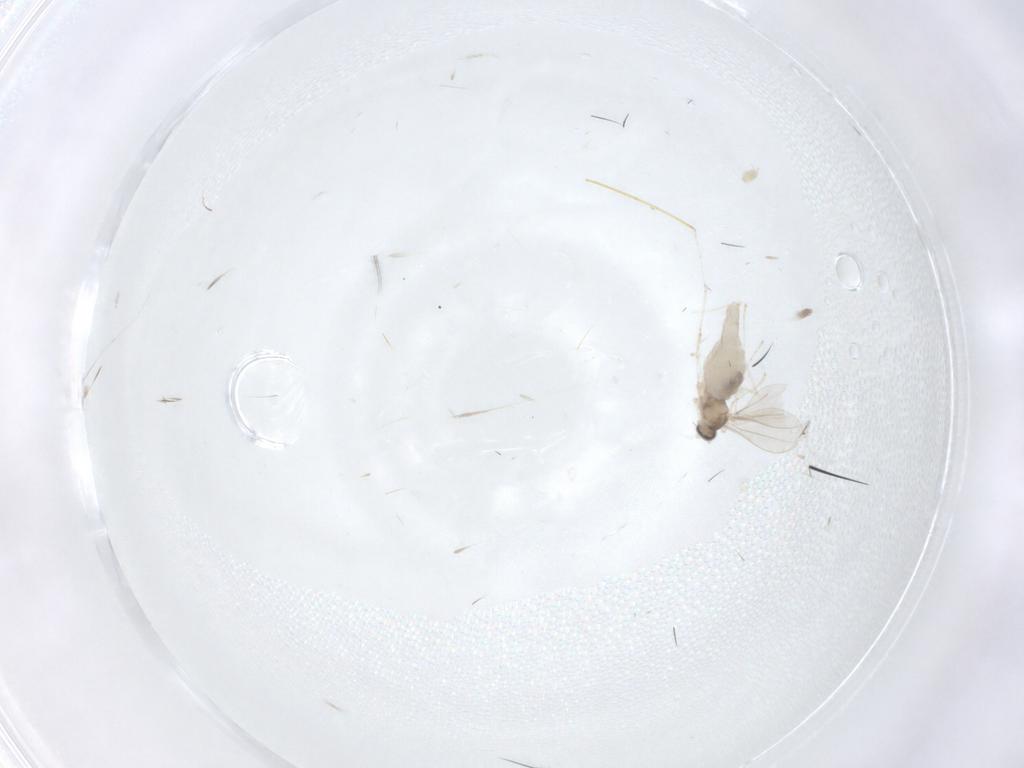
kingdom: Animalia
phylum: Arthropoda
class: Insecta
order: Diptera
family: Cecidomyiidae
